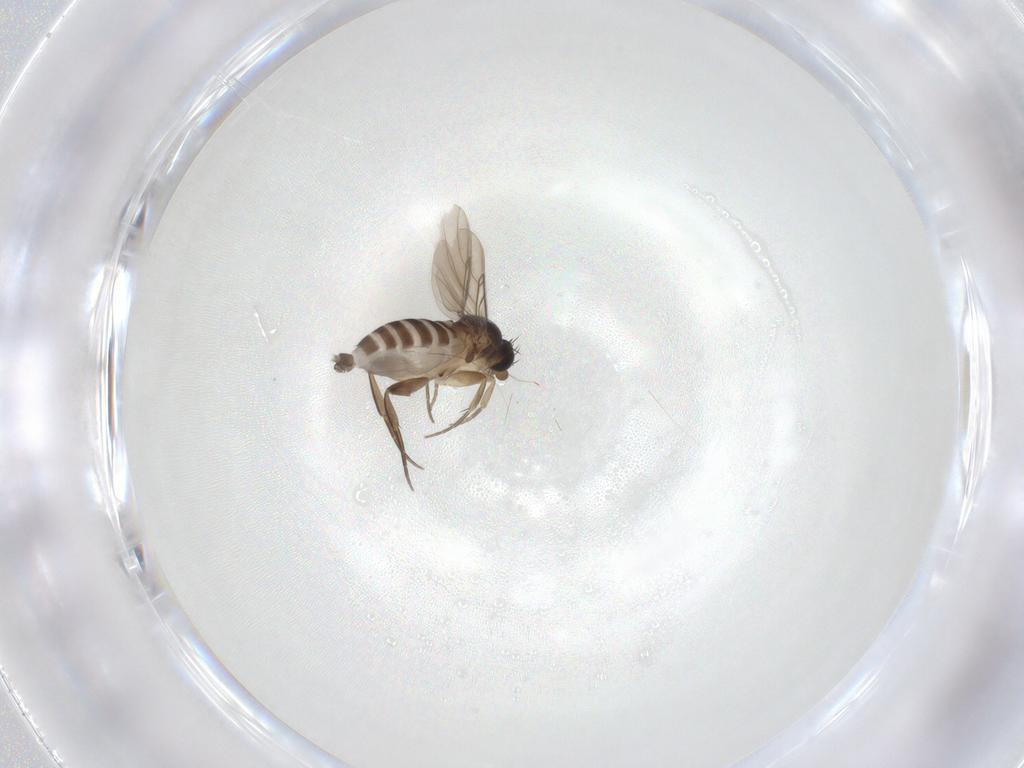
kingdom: Animalia
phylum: Arthropoda
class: Insecta
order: Diptera
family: Phoridae
